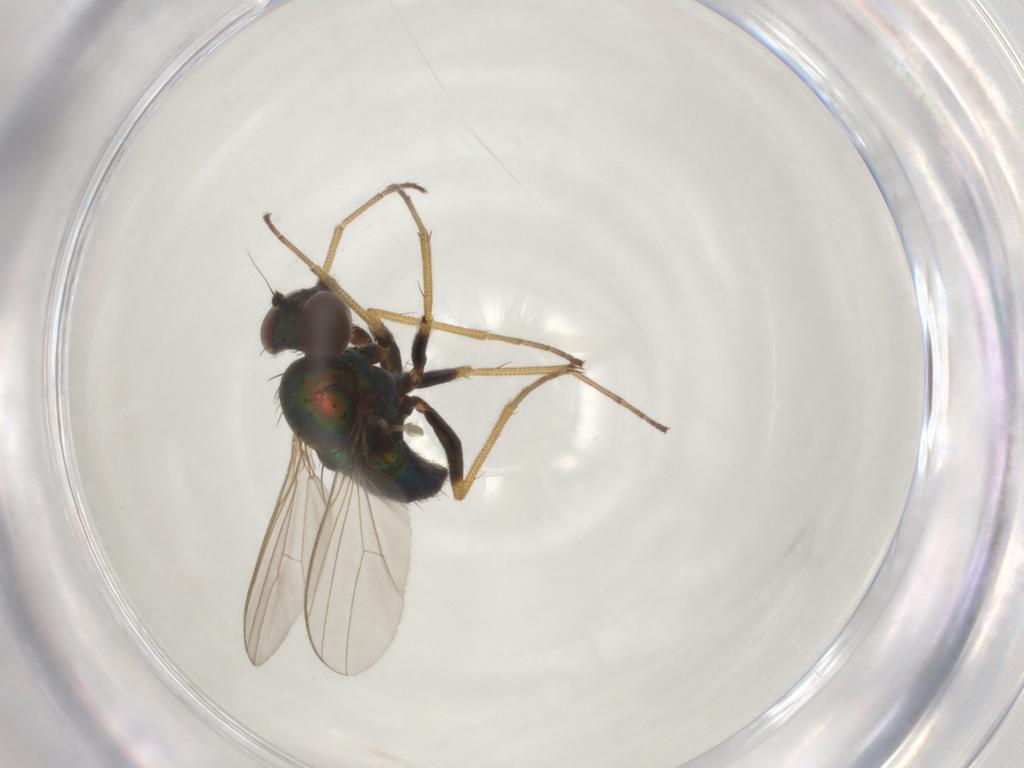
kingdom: Animalia
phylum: Arthropoda
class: Insecta
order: Diptera
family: Dolichopodidae
